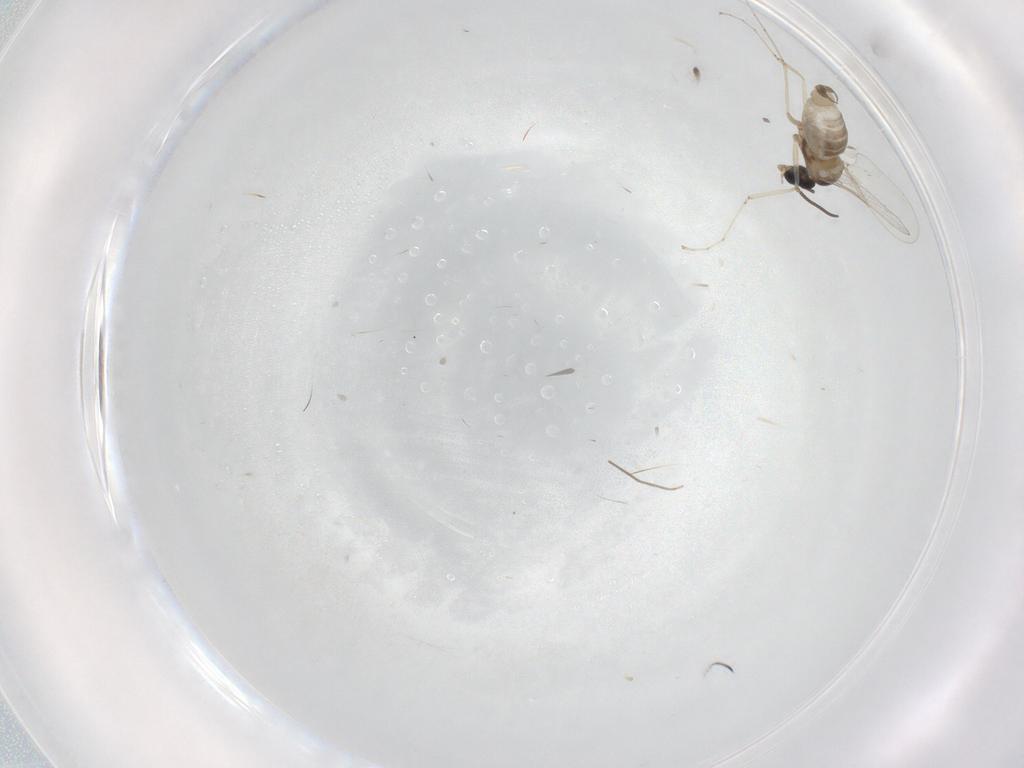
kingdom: Animalia
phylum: Arthropoda
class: Insecta
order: Diptera
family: Cecidomyiidae
